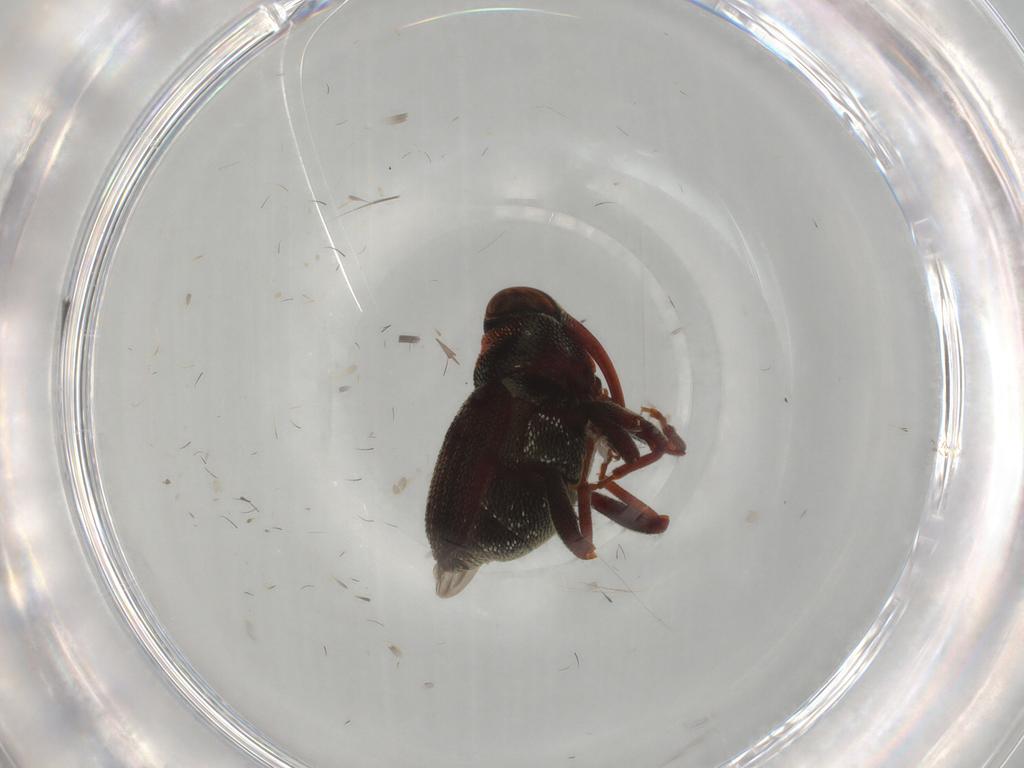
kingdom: Animalia
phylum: Arthropoda
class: Insecta
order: Coleoptera
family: Curculionidae
